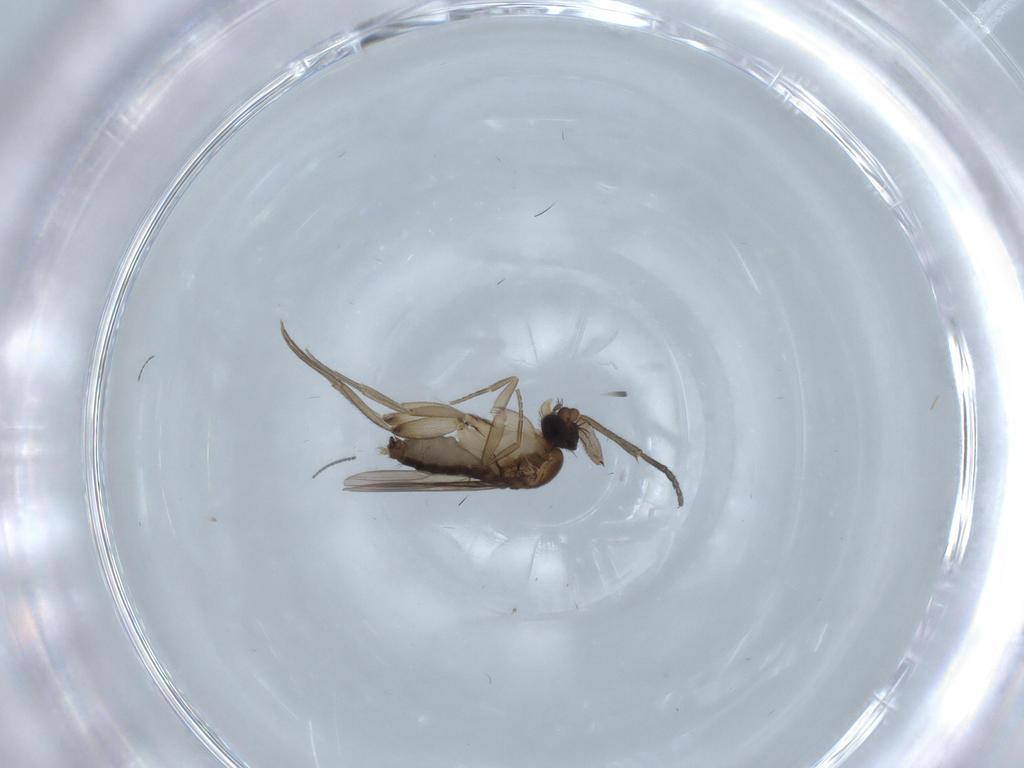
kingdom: Animalia
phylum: Arthropoda
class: Insecta
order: Diptera
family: Phoridae
